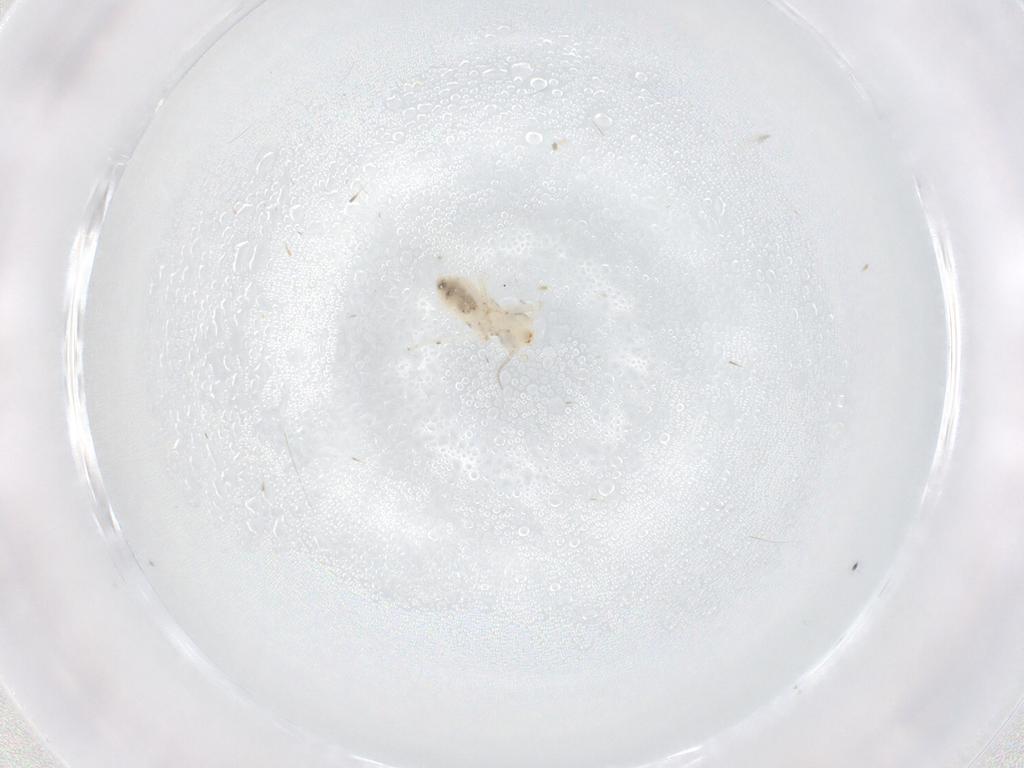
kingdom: Animalia
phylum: Arthropoda
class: Insecta
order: Psocodea
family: Lepidopsocidae
